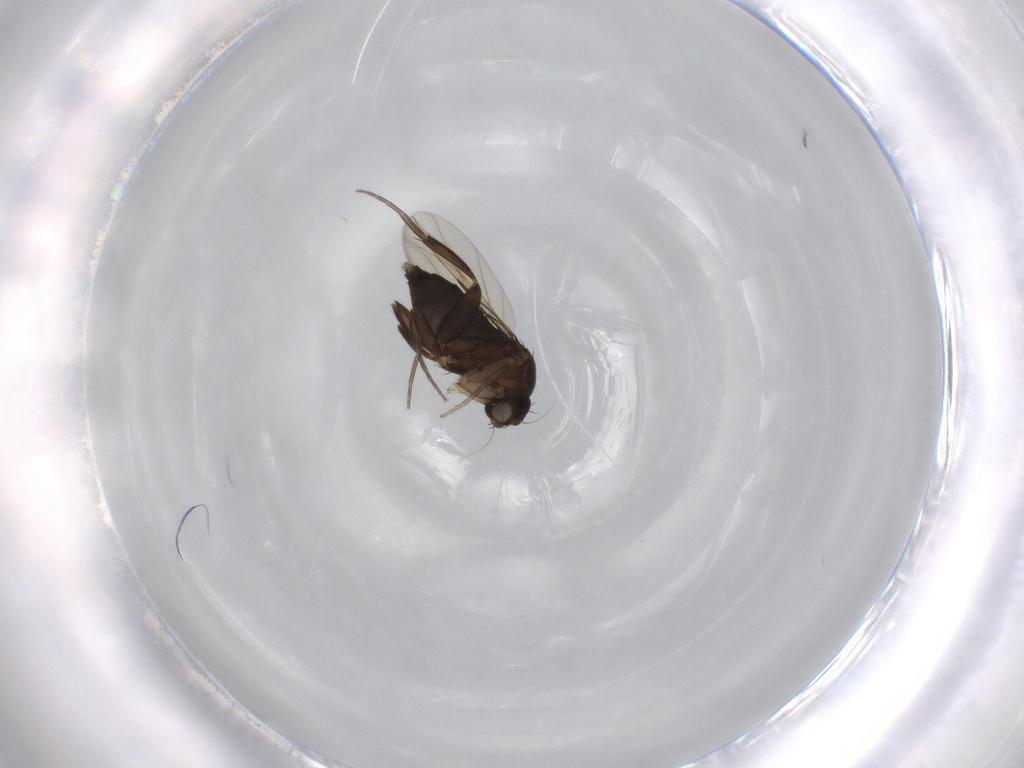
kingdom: Animalia
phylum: Arthropoda
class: Insecta
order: Diptera
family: Phoridae
